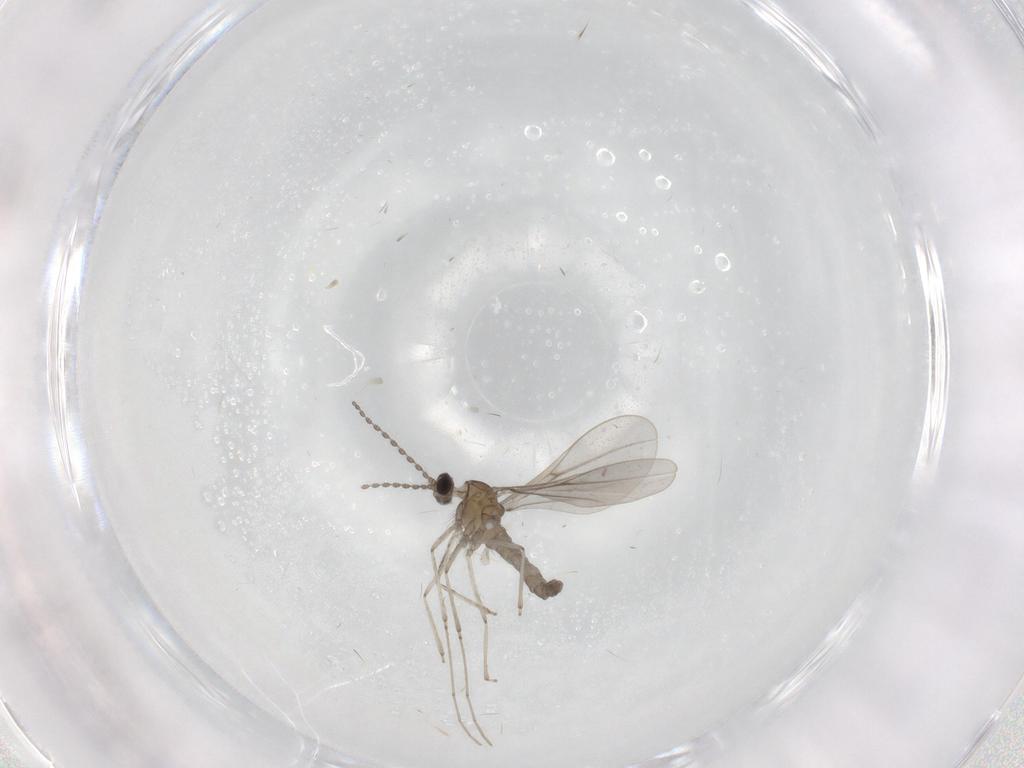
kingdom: Animalia
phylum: Arthropoda
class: Insecta
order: Diptera
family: Cecidomyiidae
